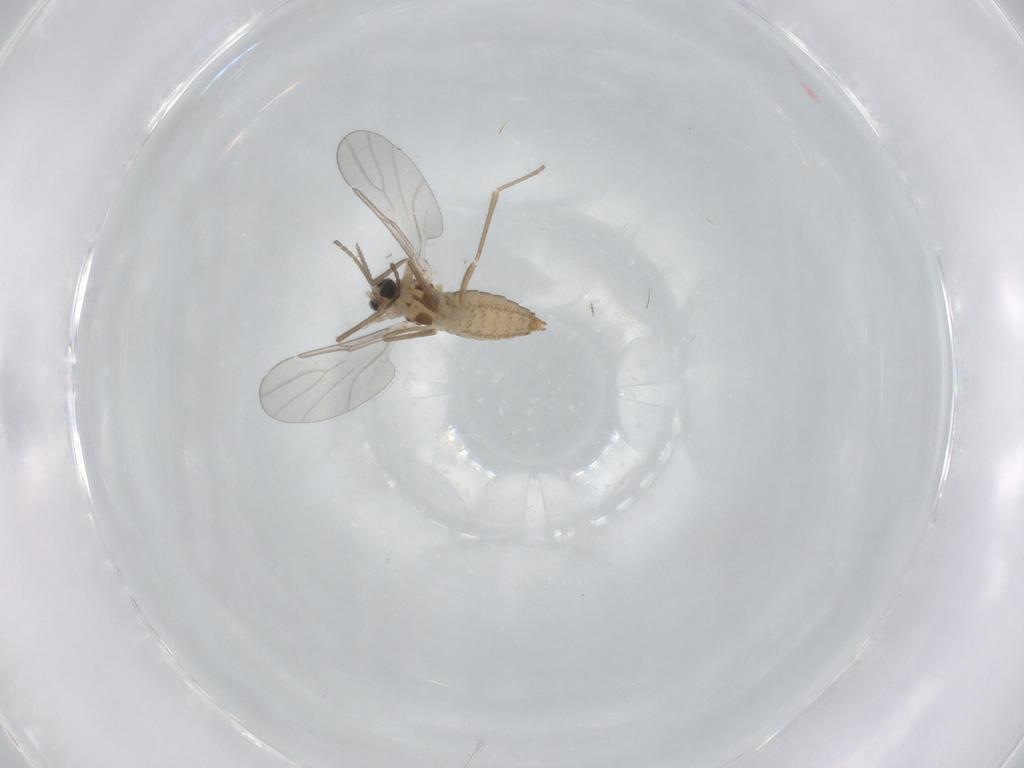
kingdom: Animalia
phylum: Arthropoda
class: Insecta
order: Diptera
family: Cecidomyiidae
